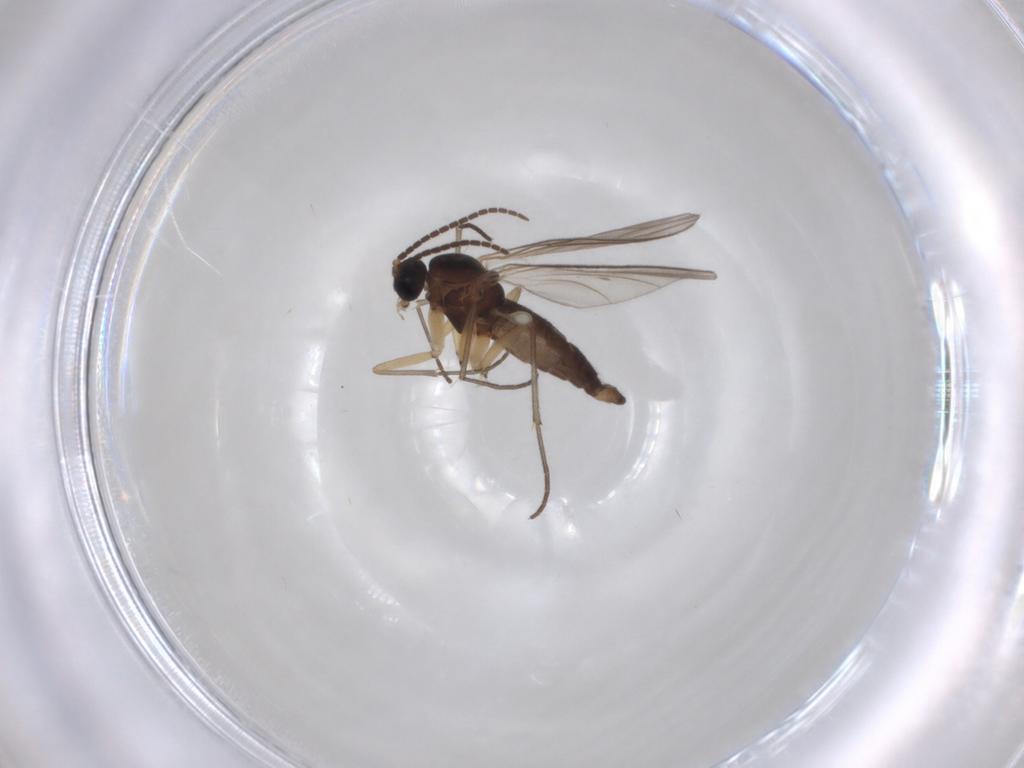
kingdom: Animalia
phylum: Arthropoda
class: Insecta
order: Diptera
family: Sciaridae
